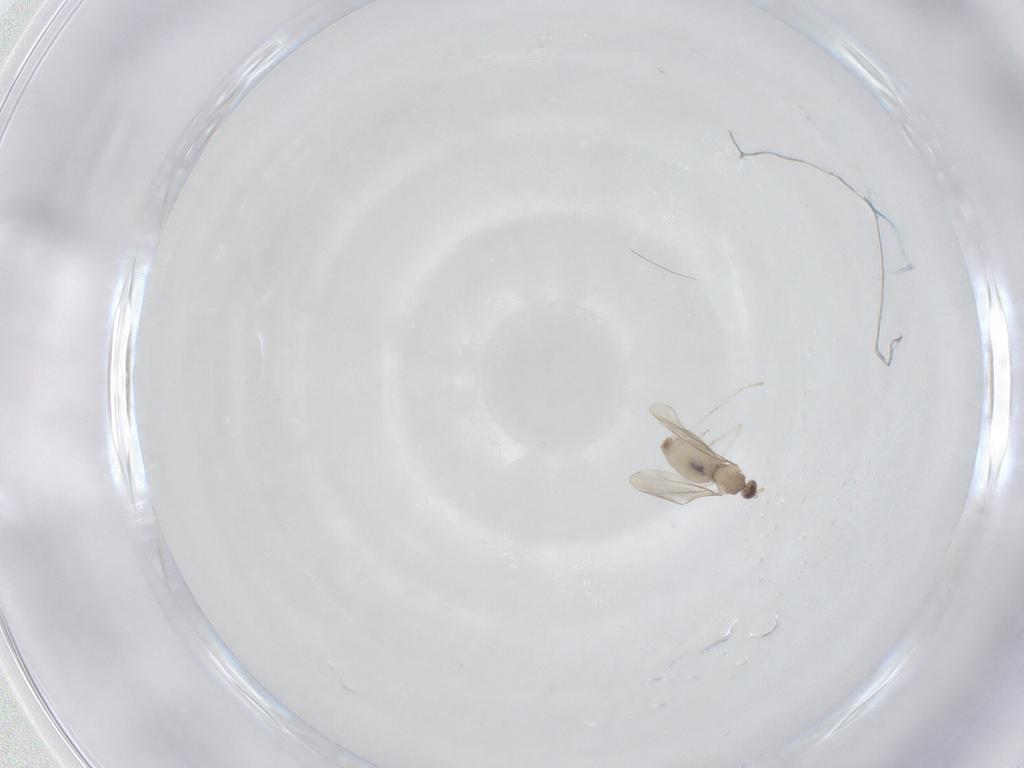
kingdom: Animalia
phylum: Arthropoda
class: Insecta
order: Diptera
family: Cecidomyiidae
